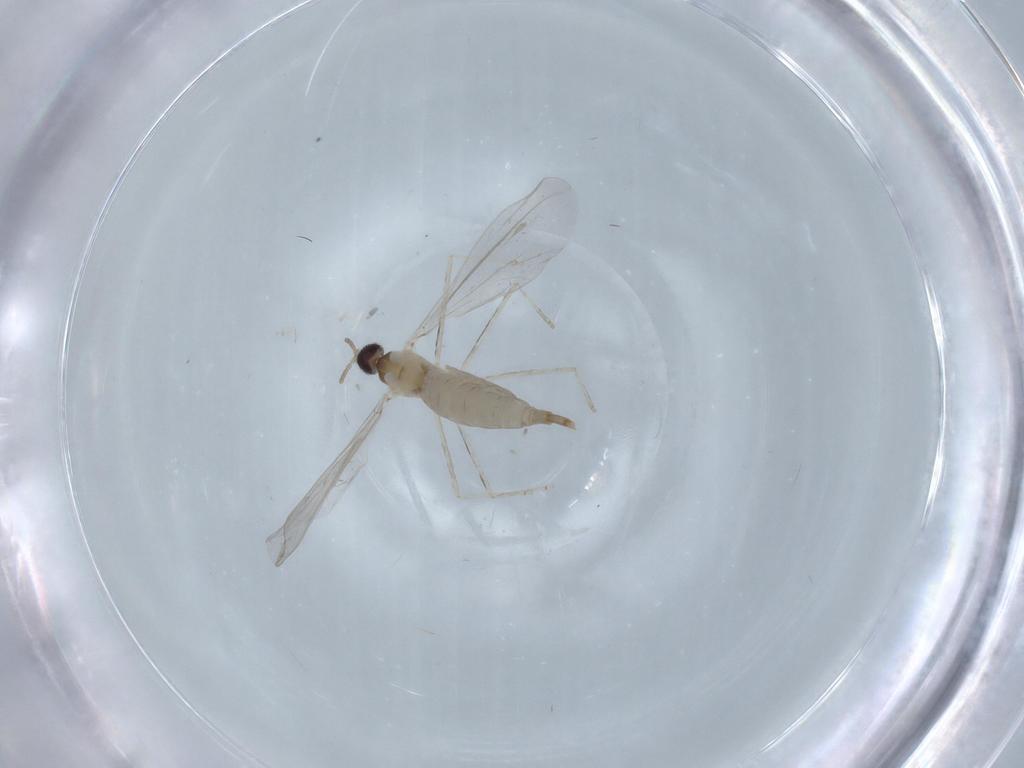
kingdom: Animalia
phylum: Arthropoda
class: Insecta
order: Diptera
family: Cecidomyiidae
